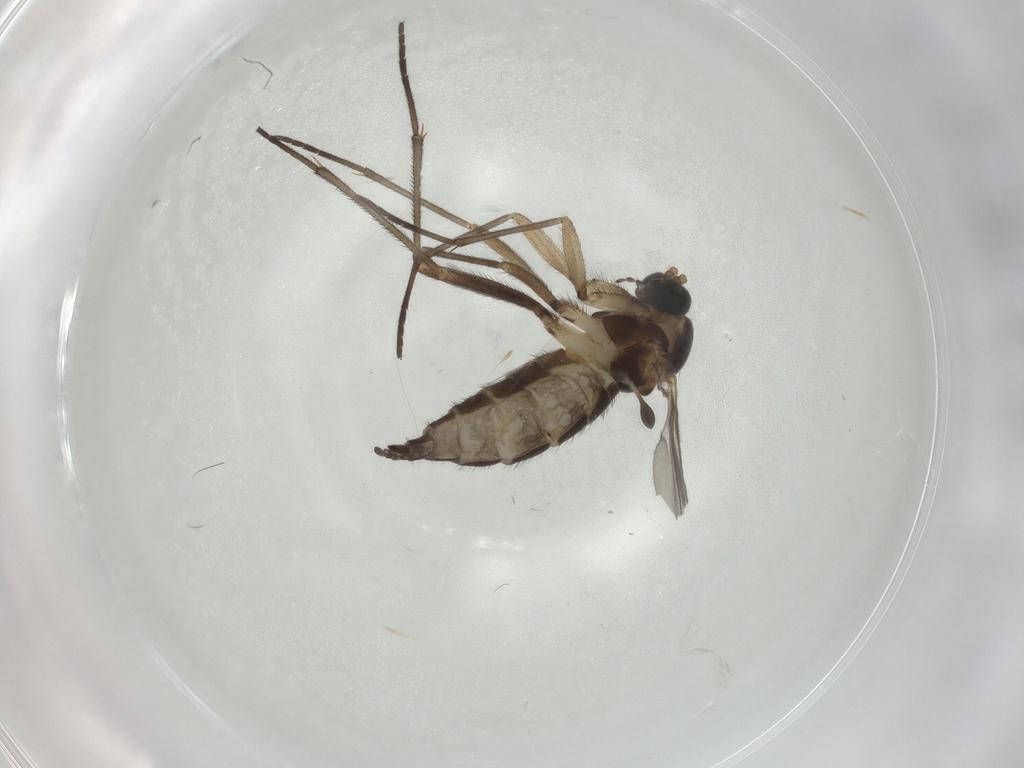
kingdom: Animalia
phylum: Arthropoda
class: Insecta
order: Diptera
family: Sciaridae
